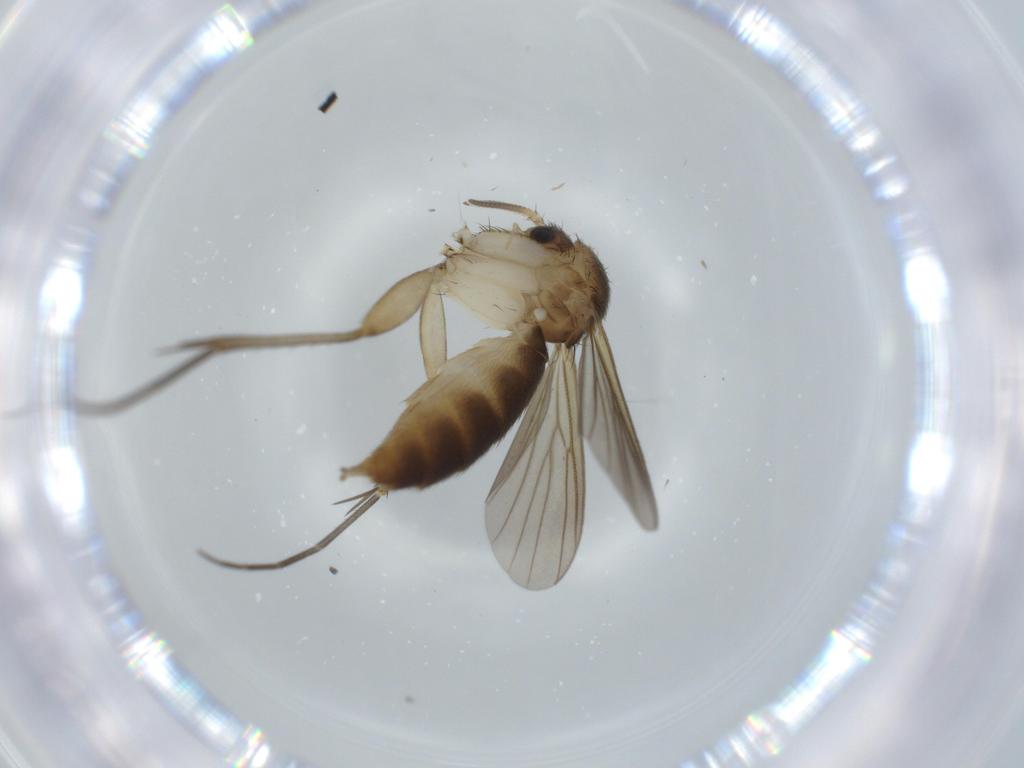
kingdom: Animalia
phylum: Arthropoda
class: Insecta
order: Diptera
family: Mycetophilidae
